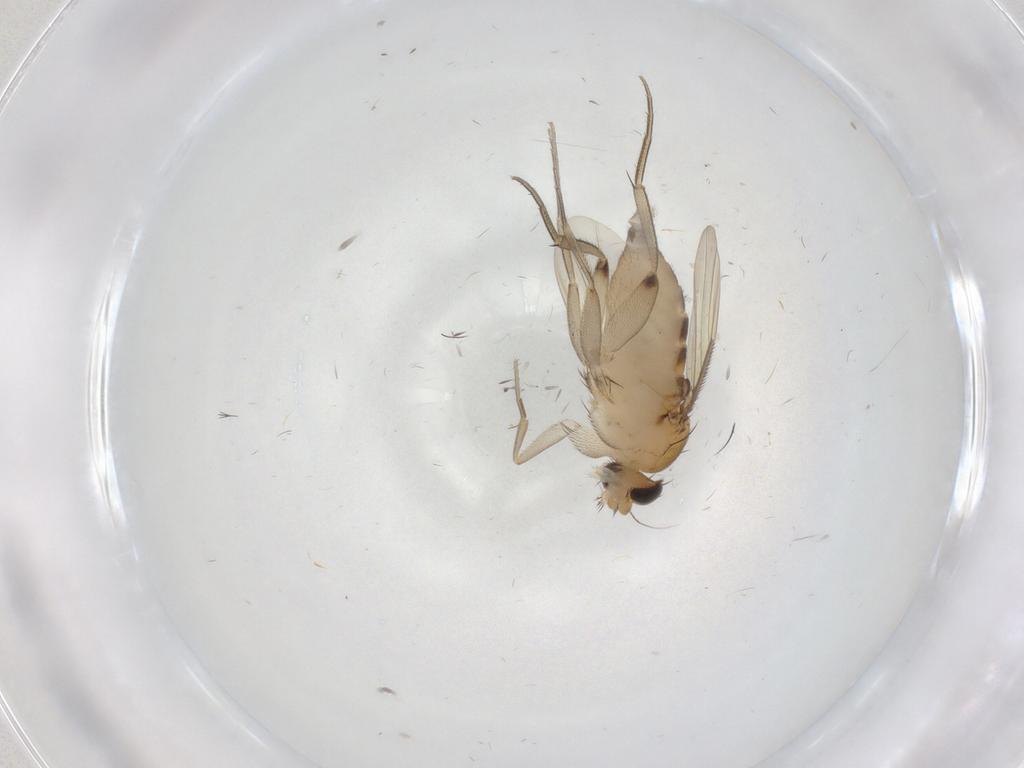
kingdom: Animalia
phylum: Arthropoda
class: Insecta
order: Diptera
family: Phoridae
